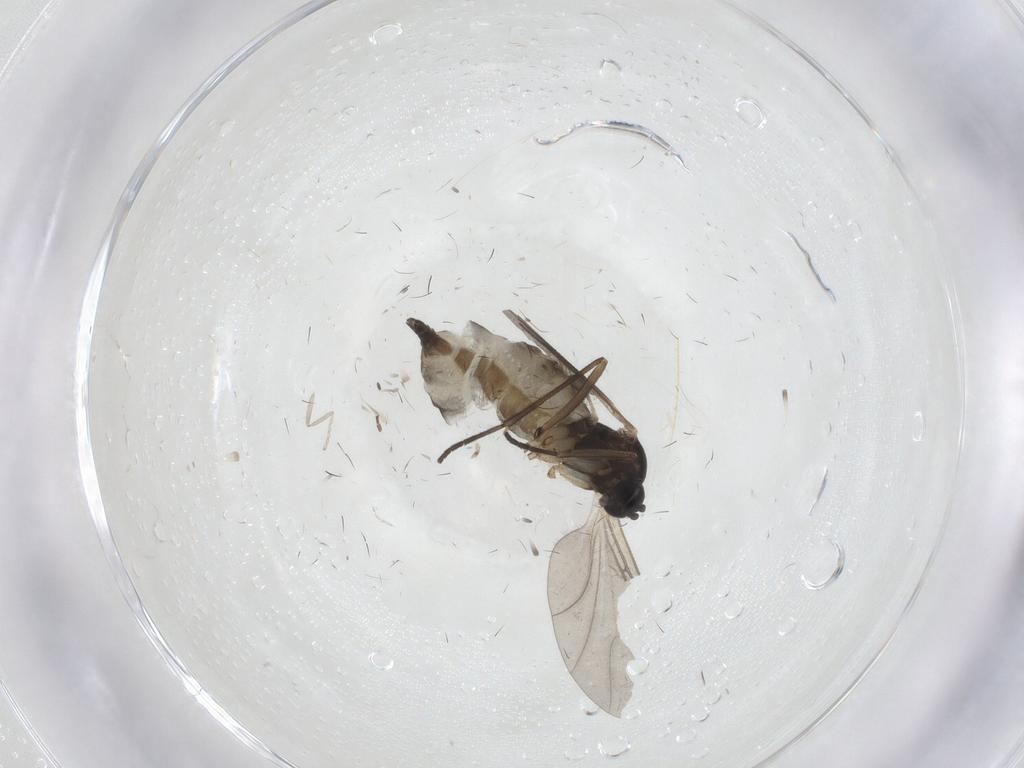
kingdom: Animalia
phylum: Arthropoda
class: Insecta
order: Diptera
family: Sciaridae
